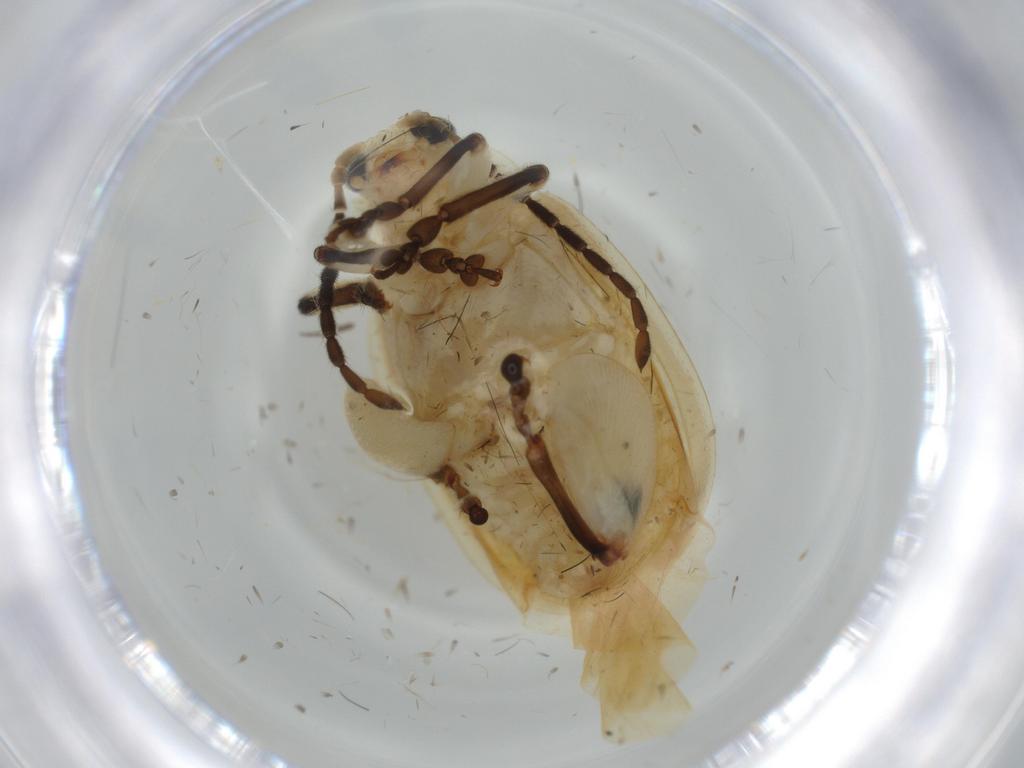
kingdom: Animalia
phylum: Arthropoda
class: Insecta
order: Coleoptera
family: Chrysomelidae
